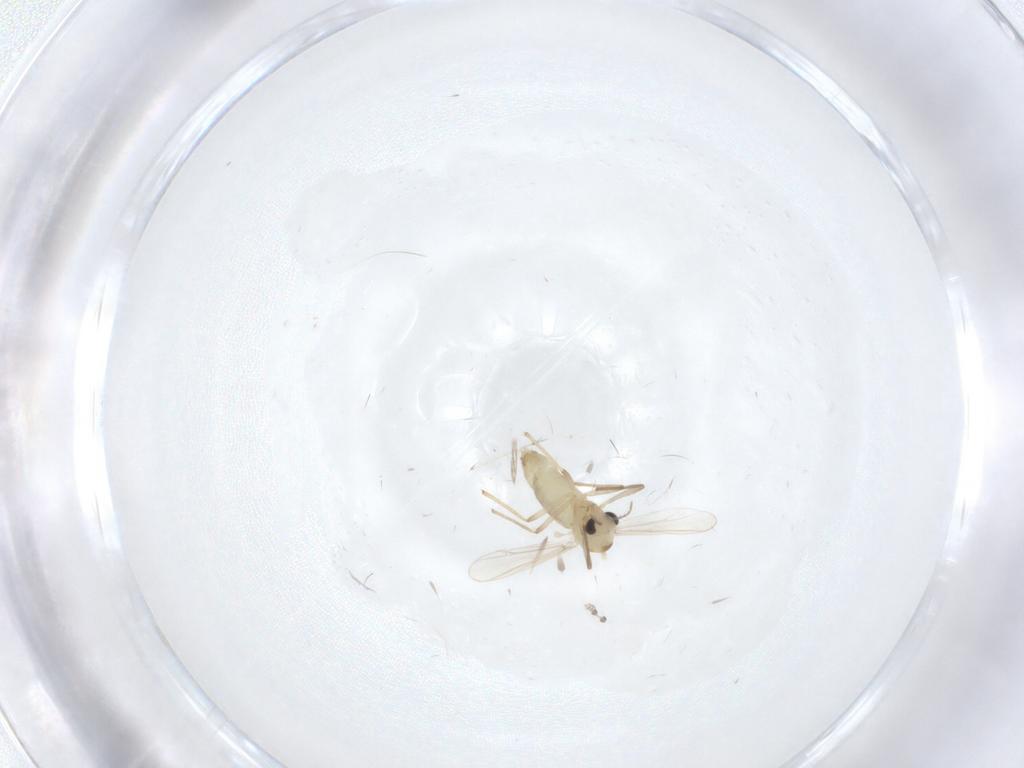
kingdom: Animalia
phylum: Arthropoda
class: Insecta
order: Diptera
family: Chironomidae
